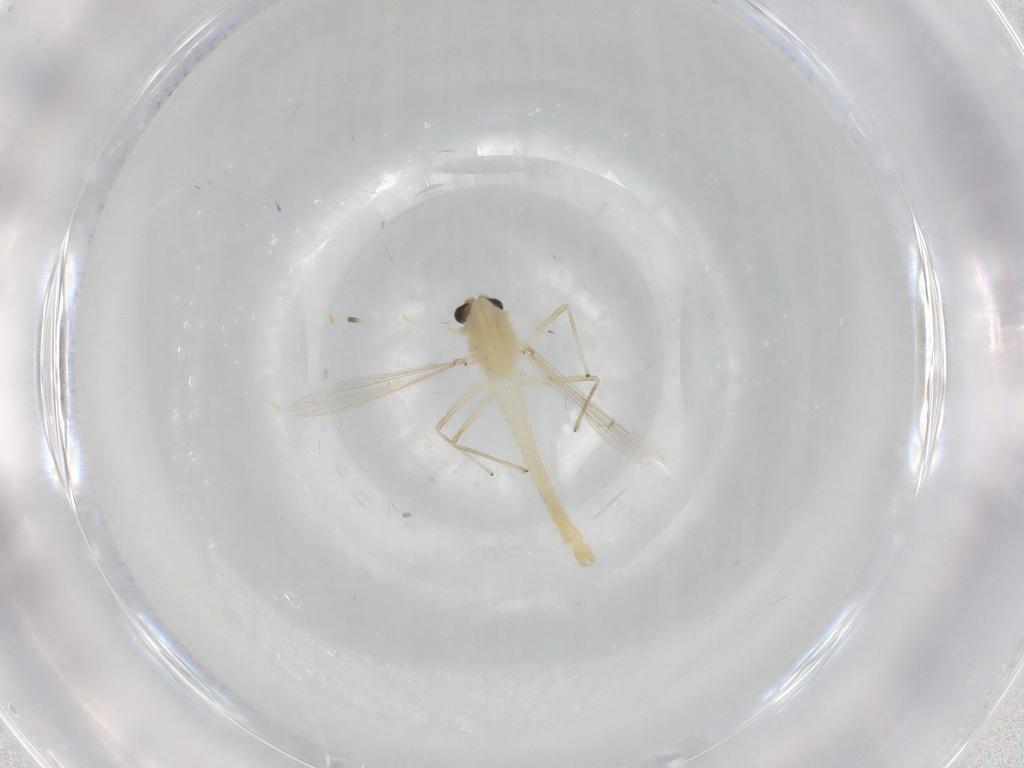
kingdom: Animalia
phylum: Arthropoda
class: Insecta
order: Diptera
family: Chironomidae
